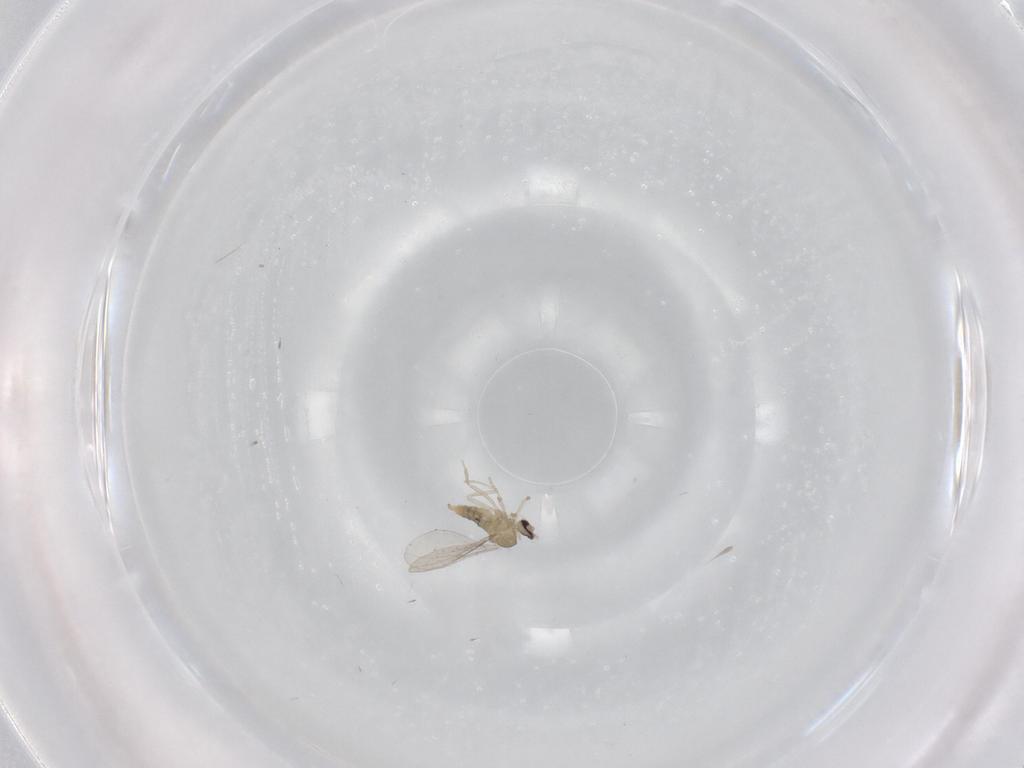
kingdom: Animalia
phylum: Arthropoda
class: Insecta
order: Diptera
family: Cecidomyiidae
